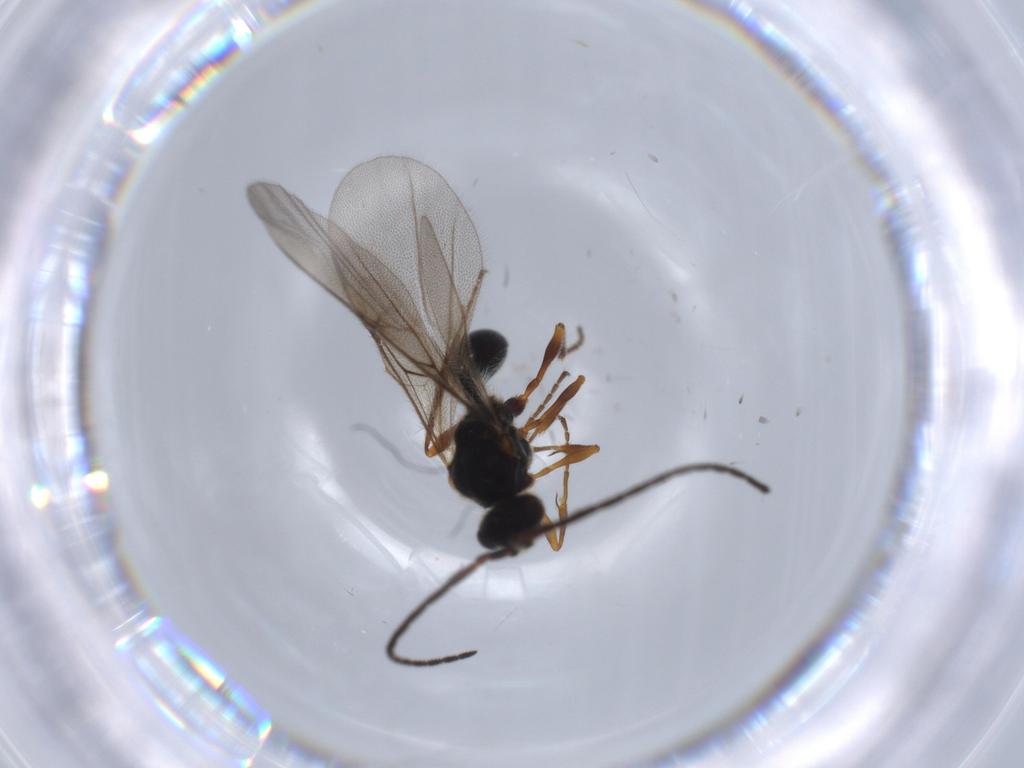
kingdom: Animalia
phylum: Arthropoda
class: Insecta
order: Hymenoptera
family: Diapriidae
